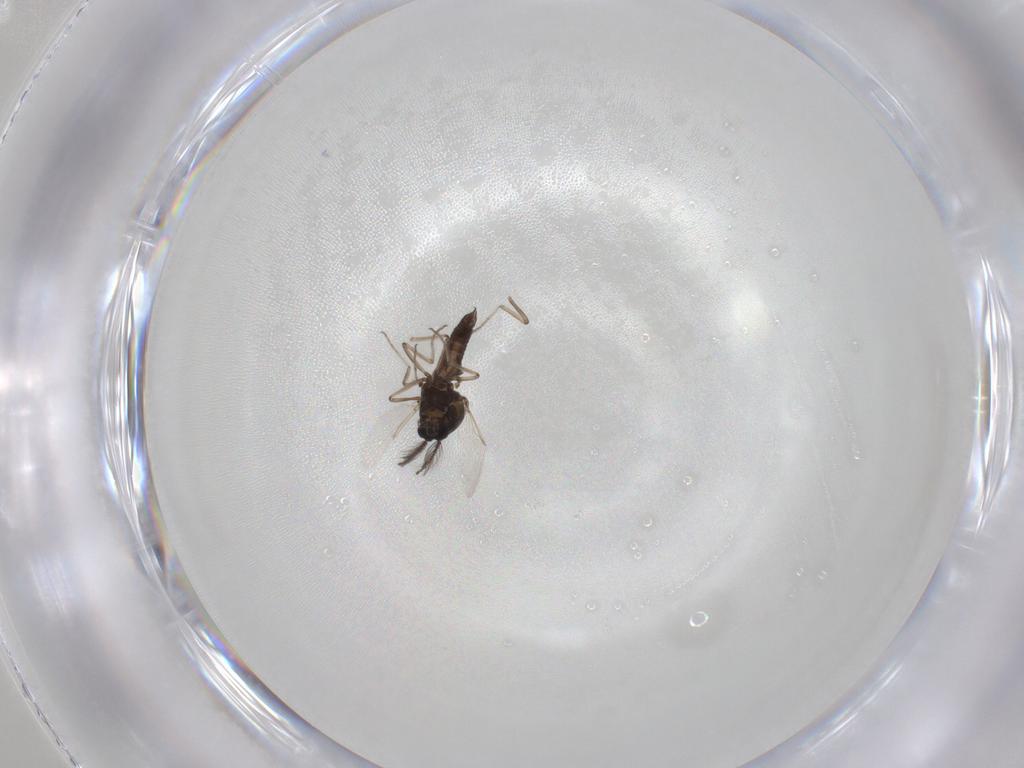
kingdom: Animalia
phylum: Arthropoda
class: Insecta
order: Diptera
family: Ceratopogonidae
